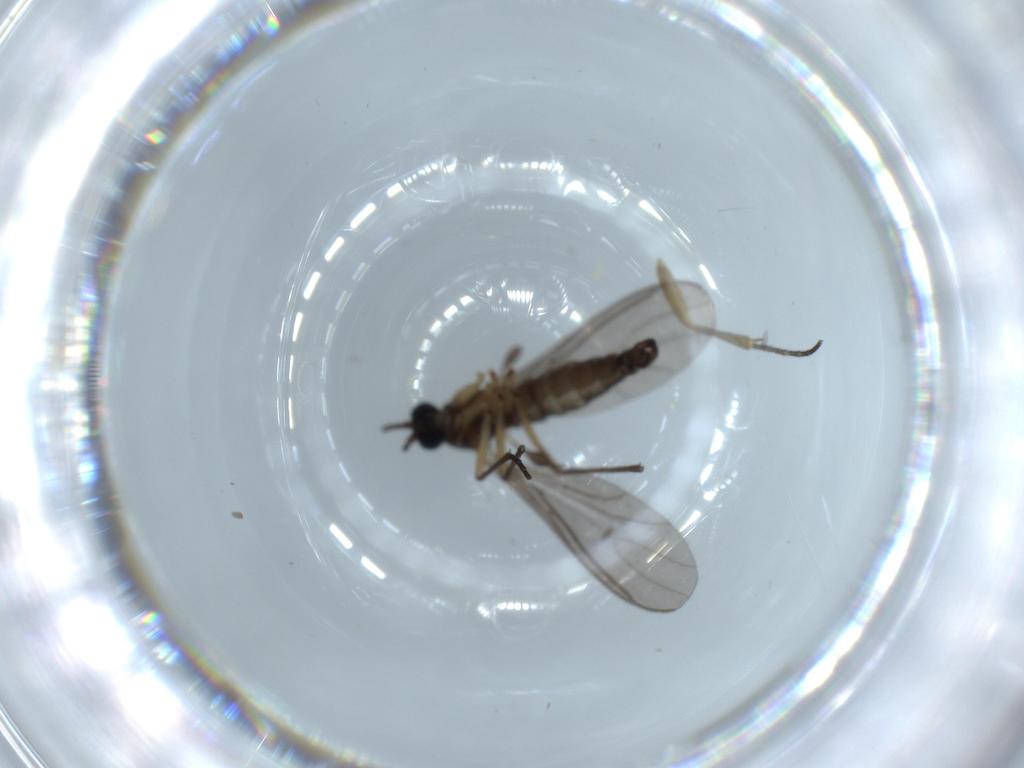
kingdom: Animalia
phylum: Arthropoda
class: Insecta
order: Diptera
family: Sciaridae
